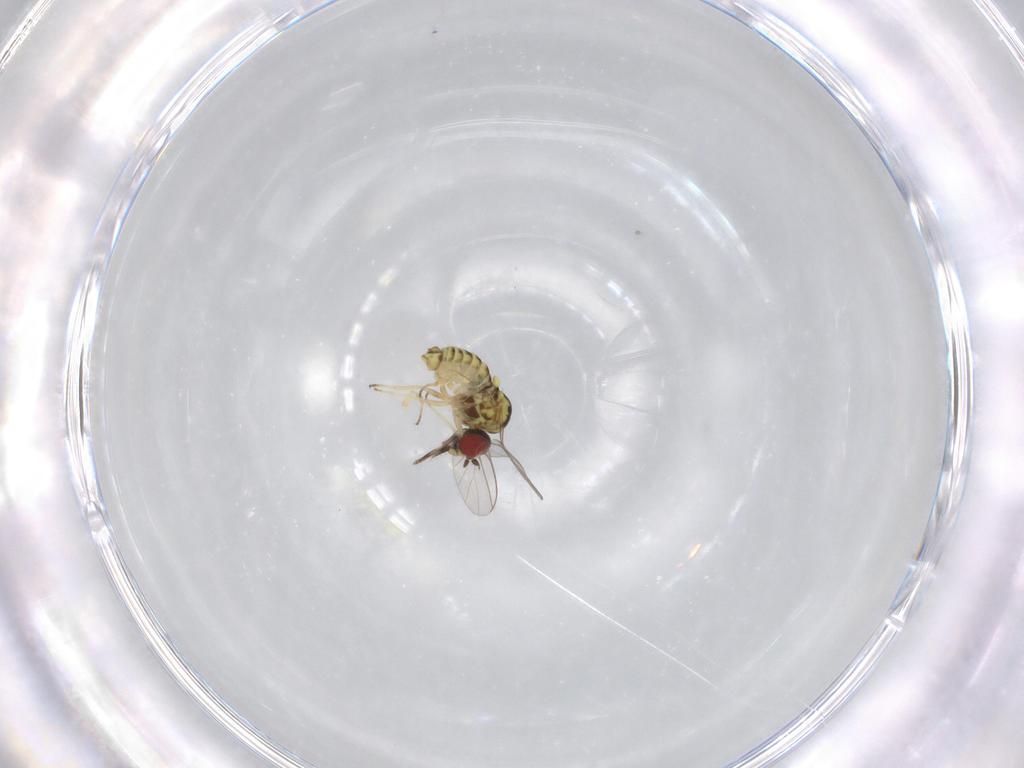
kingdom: Animalia
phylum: Arthropoda
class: Insecta
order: Diptera
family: Ceratopogonidae
